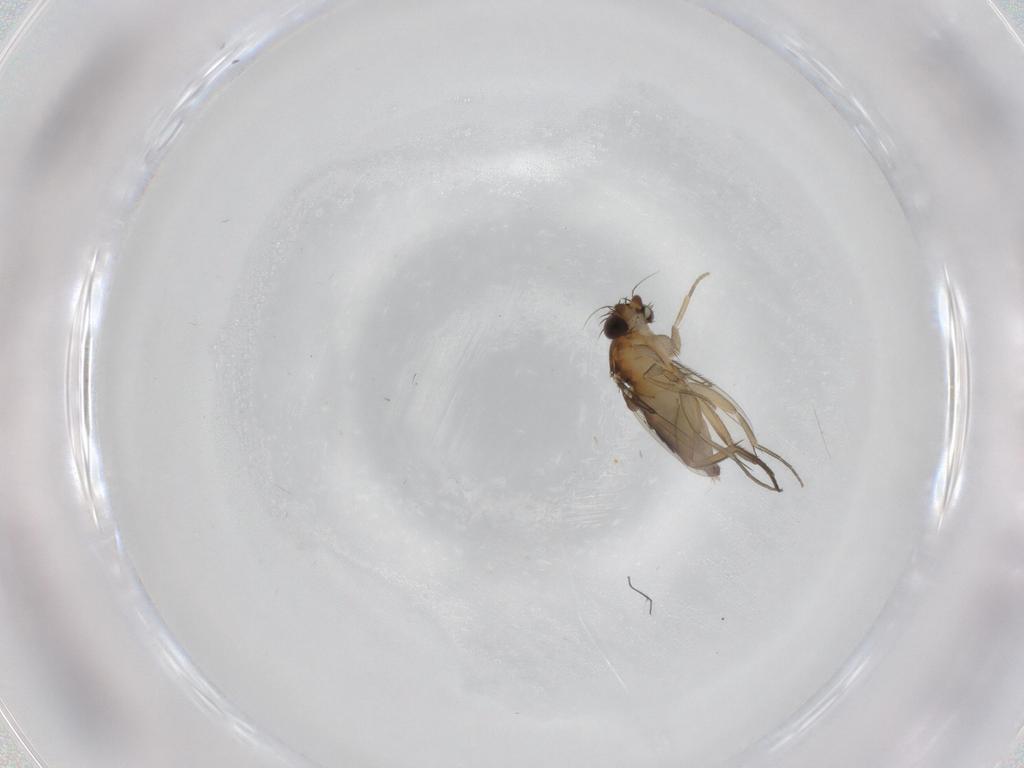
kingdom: Animalia
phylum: Arthropoda
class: Insecta
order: Diptera
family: Phoridae
